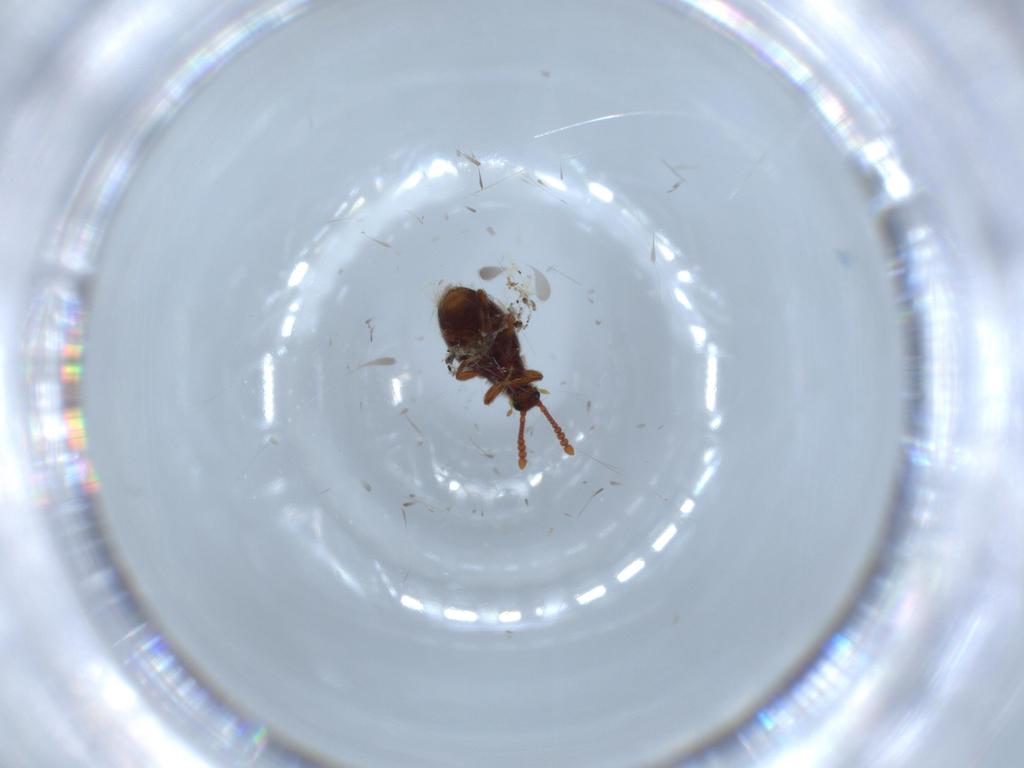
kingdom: Animalia
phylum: Arthropoda
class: Insecta
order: Coleoptera
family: Staphylinidae
